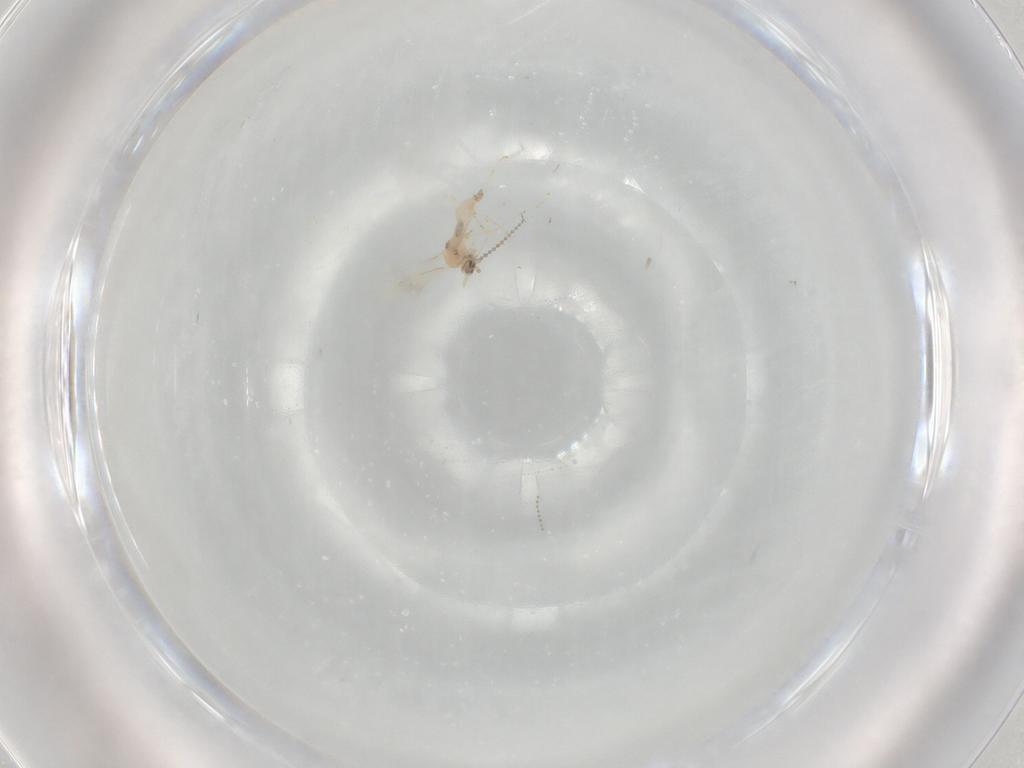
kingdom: Animalia
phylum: Arthropoda
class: Insecta
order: Diptera
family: Cecidomyiidae
